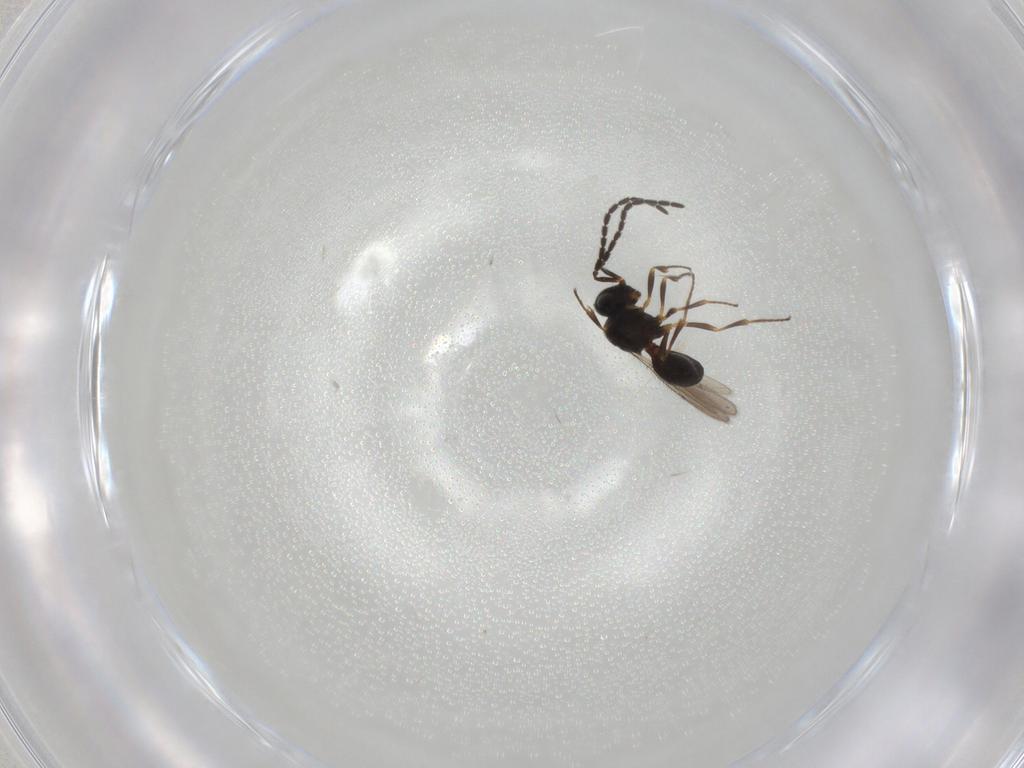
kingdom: Animalia
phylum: Arthropoda
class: Insecta
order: Hymenoptera
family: Scelionidae
